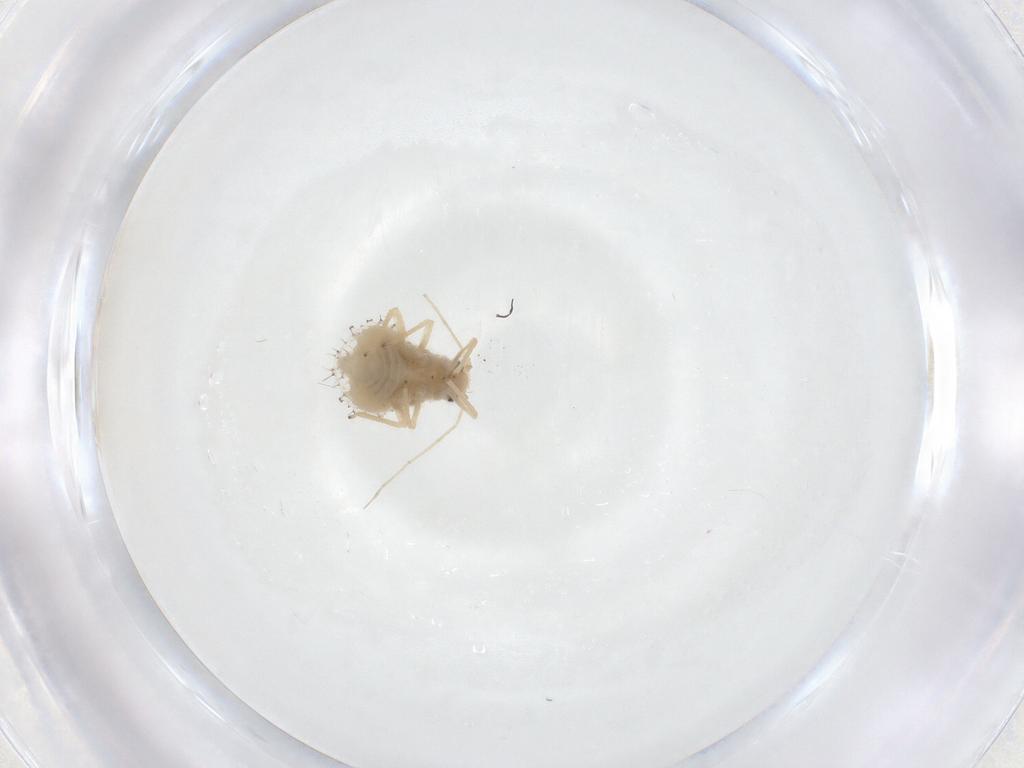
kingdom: Animalia
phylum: Arthropoda
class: Insecta
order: Hemiptera
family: Aphididae
